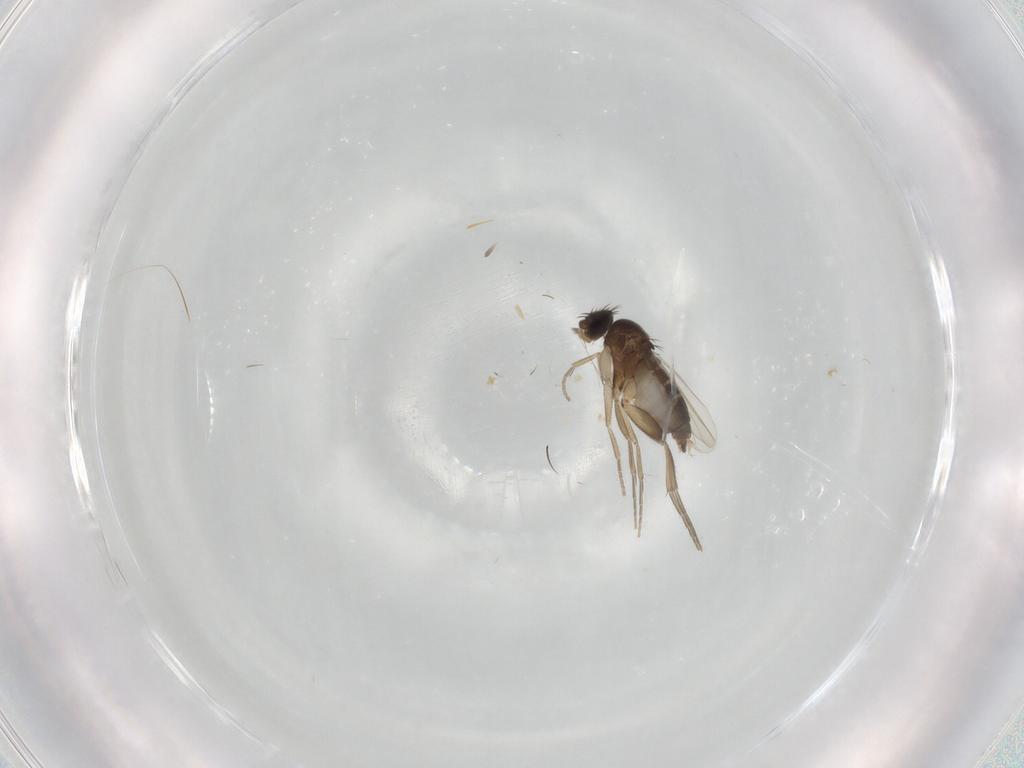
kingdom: Animalia
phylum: Arthropoda
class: Insecta
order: Diptera
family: Phoridae
